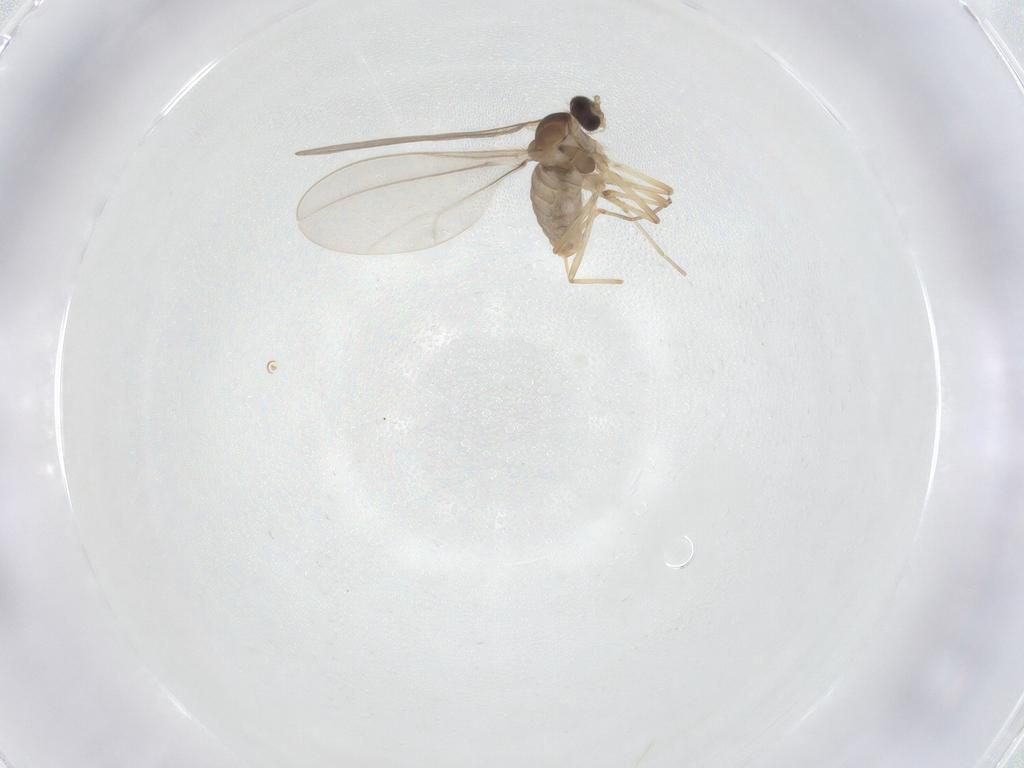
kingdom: Animalia
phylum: Arthropoda
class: Insecta
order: Diptera
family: Cecidomyiidae
